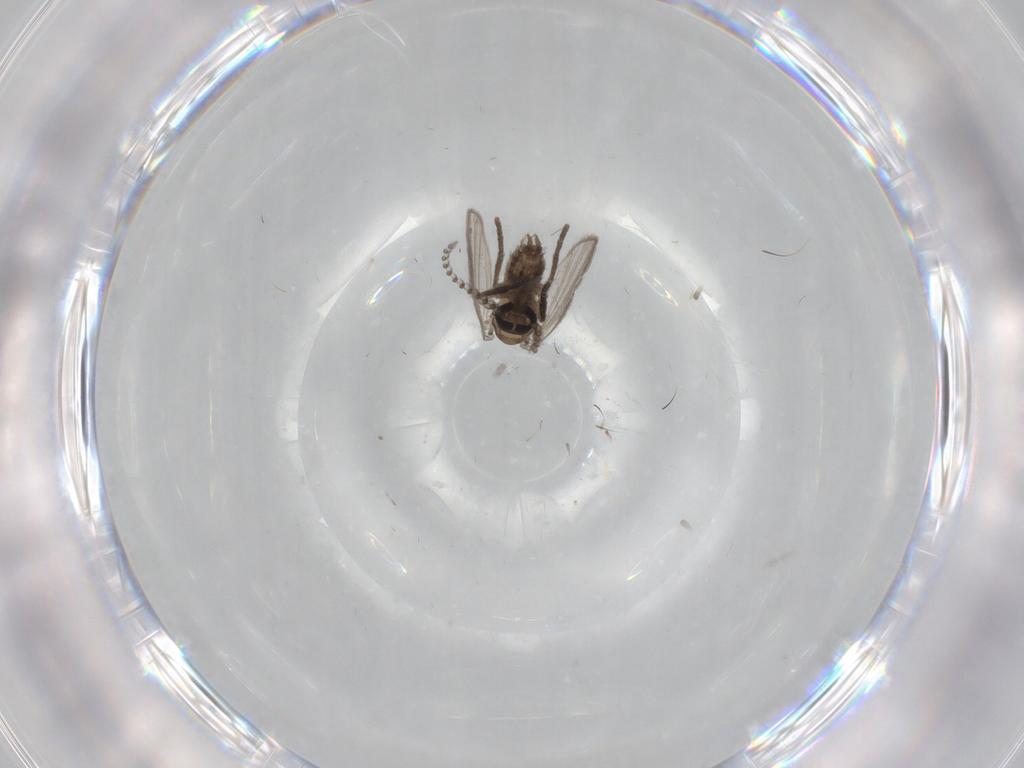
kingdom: Animalia
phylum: Arthropoda
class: Insecta
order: Diptera
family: Psychodidae
